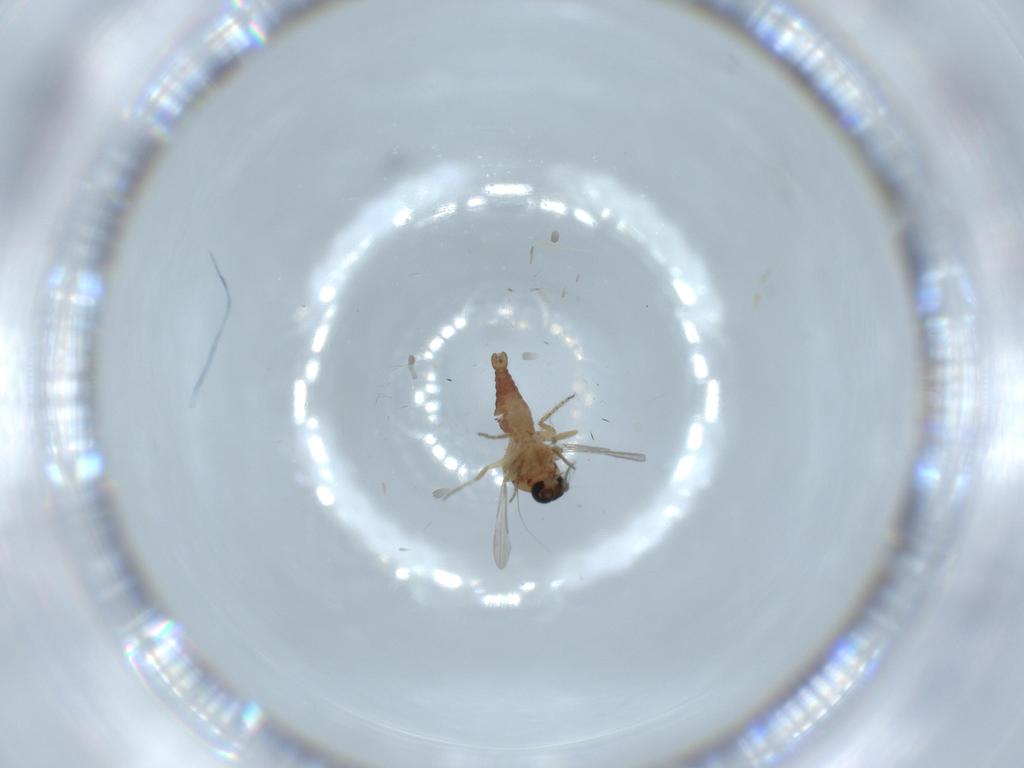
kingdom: Animalia
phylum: Arthropoda
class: Insecta
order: Diptera
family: Ceratopogonidae
